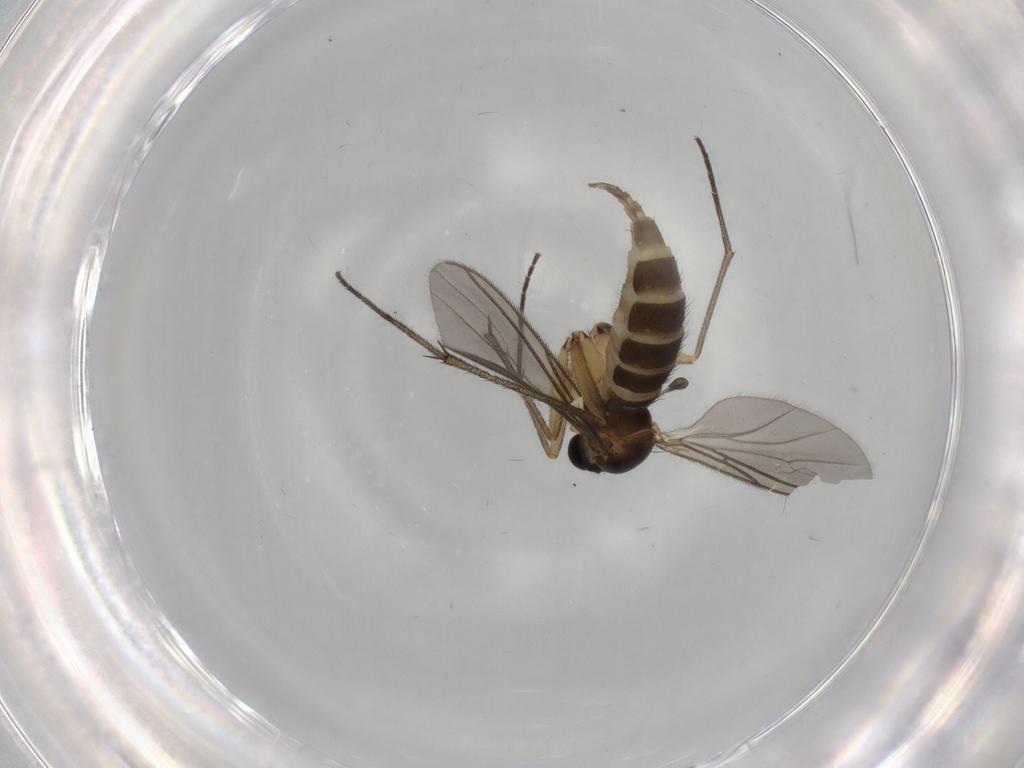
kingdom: Animalia
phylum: Arthropoda
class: Insecta
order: Diptera
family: Sciaridae
